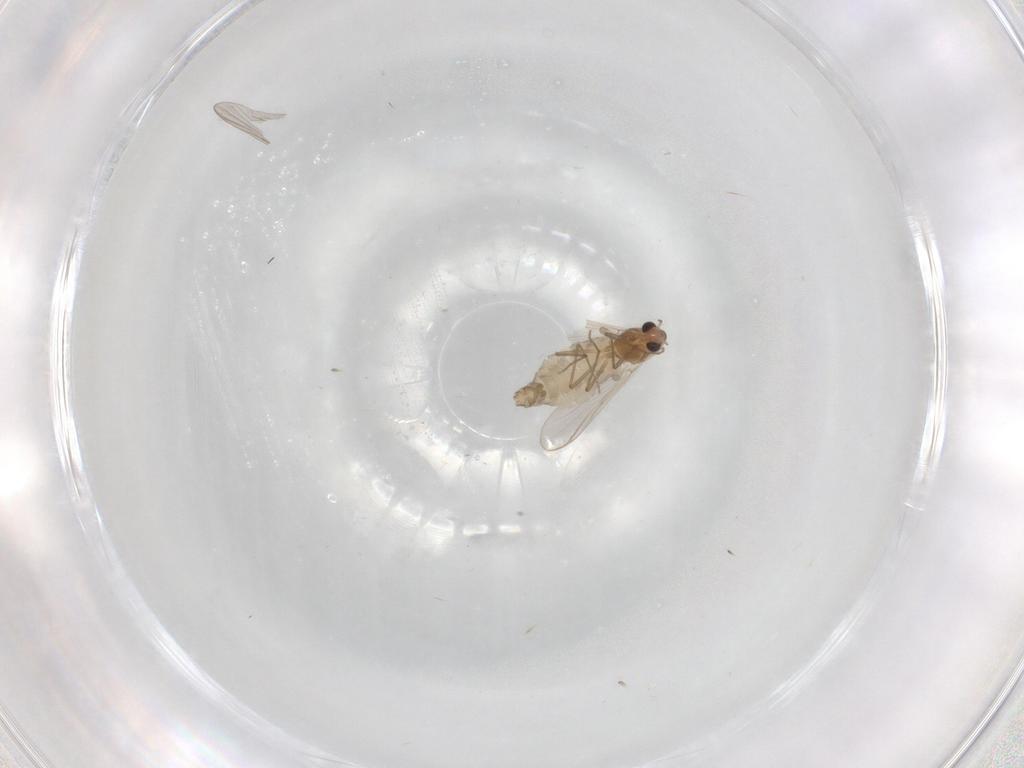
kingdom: Animalia
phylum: Arthropoda
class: Insecta
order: Diptera
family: Chironomidae
